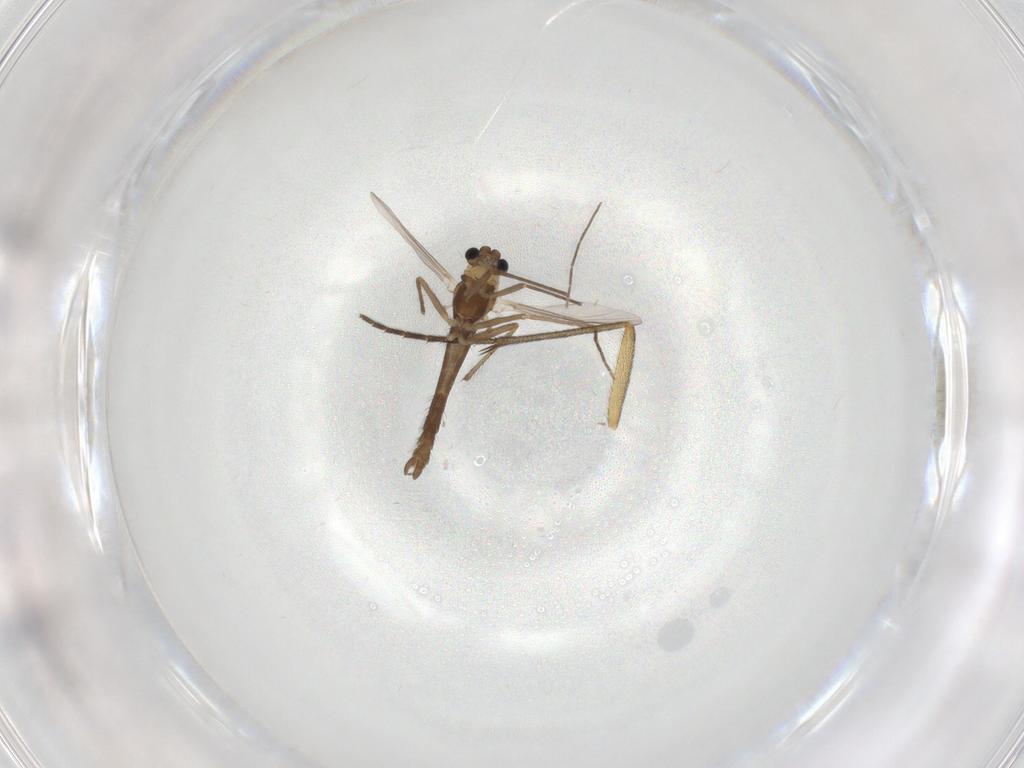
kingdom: Animalia
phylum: Arthropoda
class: Insecta
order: Diptera
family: Chironomidae
